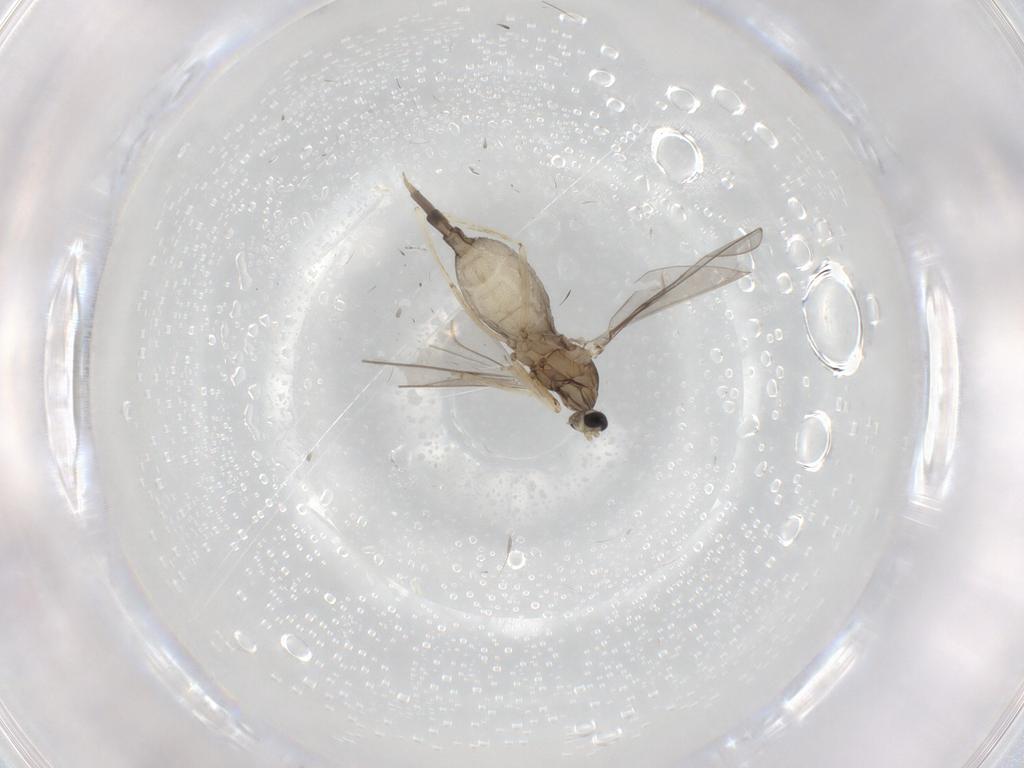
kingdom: Animalia
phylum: Arthropoda
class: Insecta
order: Diptera
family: Cecidomyiidae
